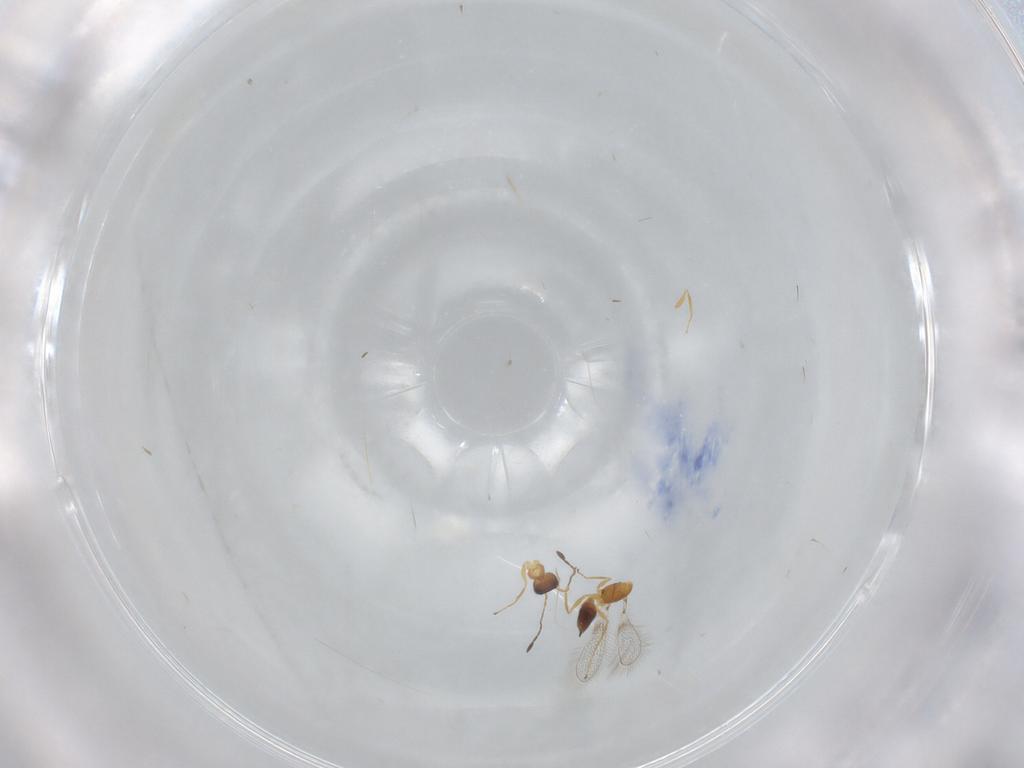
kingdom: Animalia
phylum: Arthropoda
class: Insecta
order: Hymenoptera
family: Mymaridae
